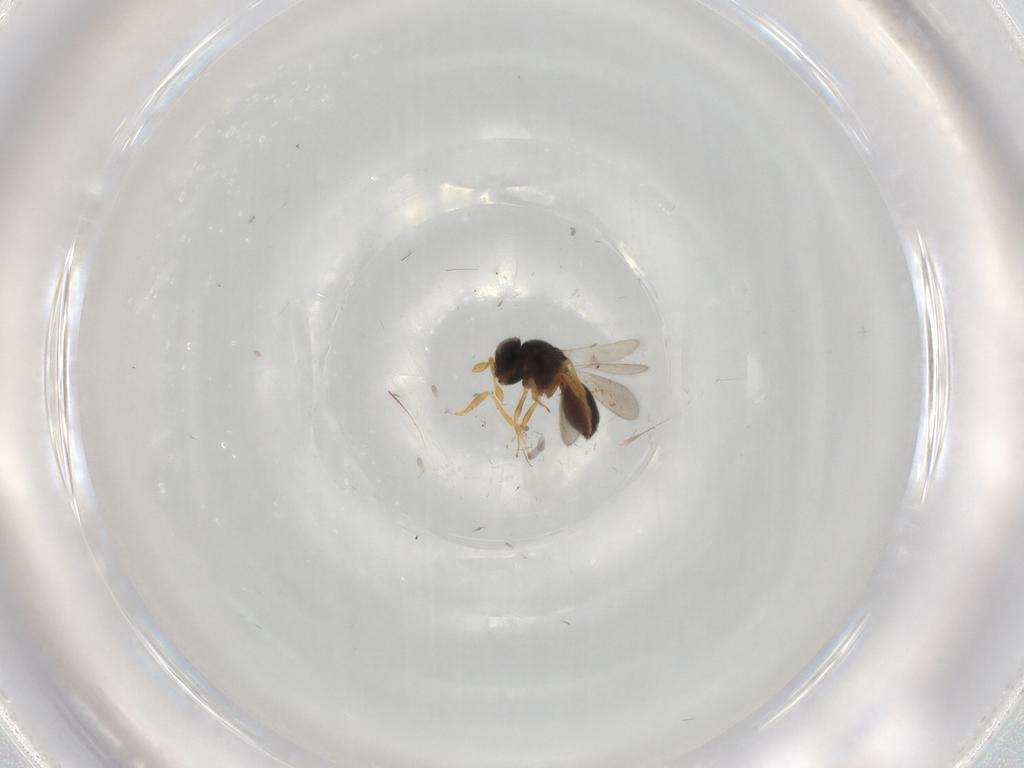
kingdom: Animalia
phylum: Arthropoda
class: Insecta
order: Hymenoptera
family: Scelionidae
